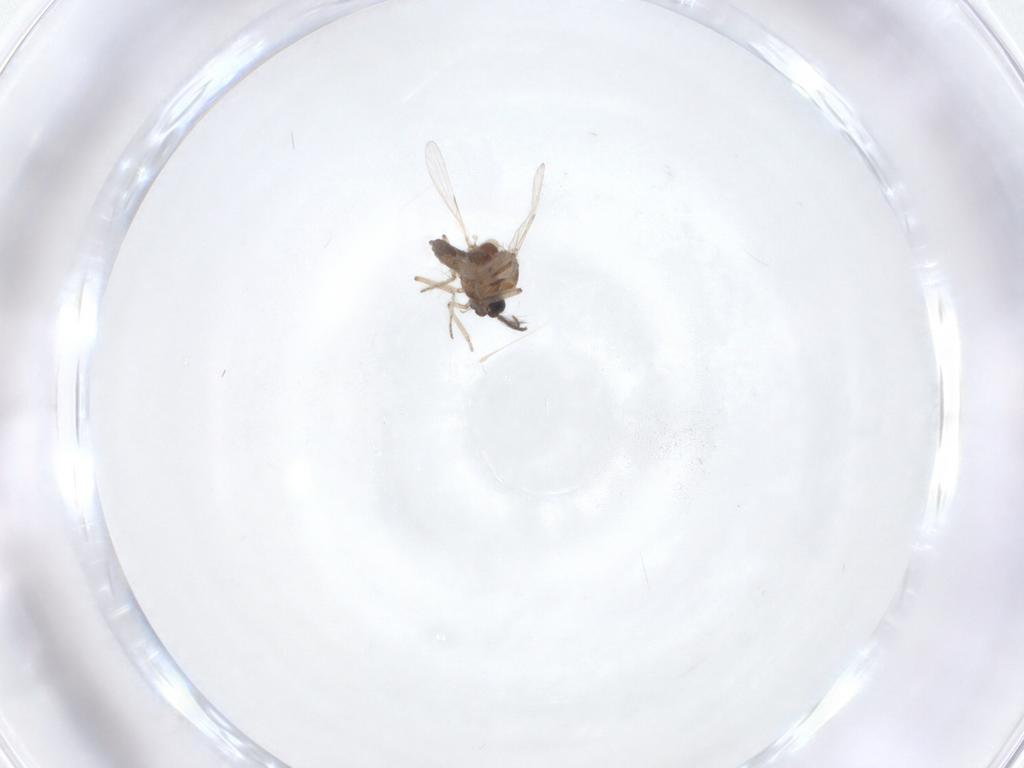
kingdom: Animalia
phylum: Arthropoda
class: Insecta
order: Diptera
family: Ceratopogonidae
